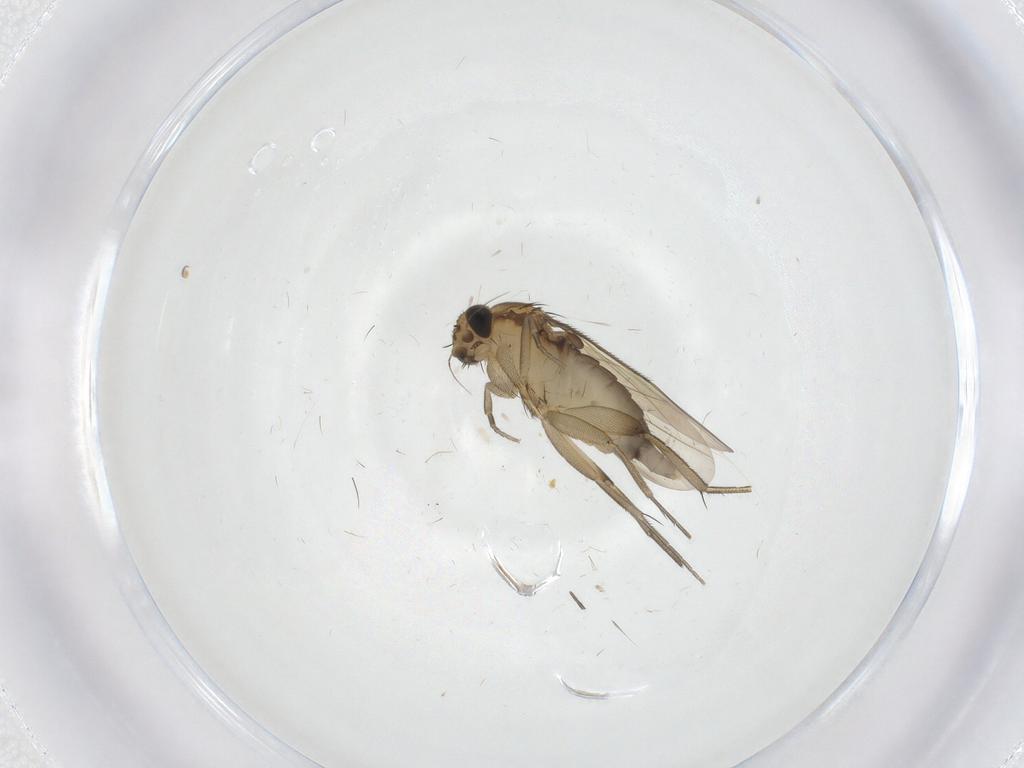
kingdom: Animalia
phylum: Arthropoda
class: Insecta
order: Diptera
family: Phoridae
